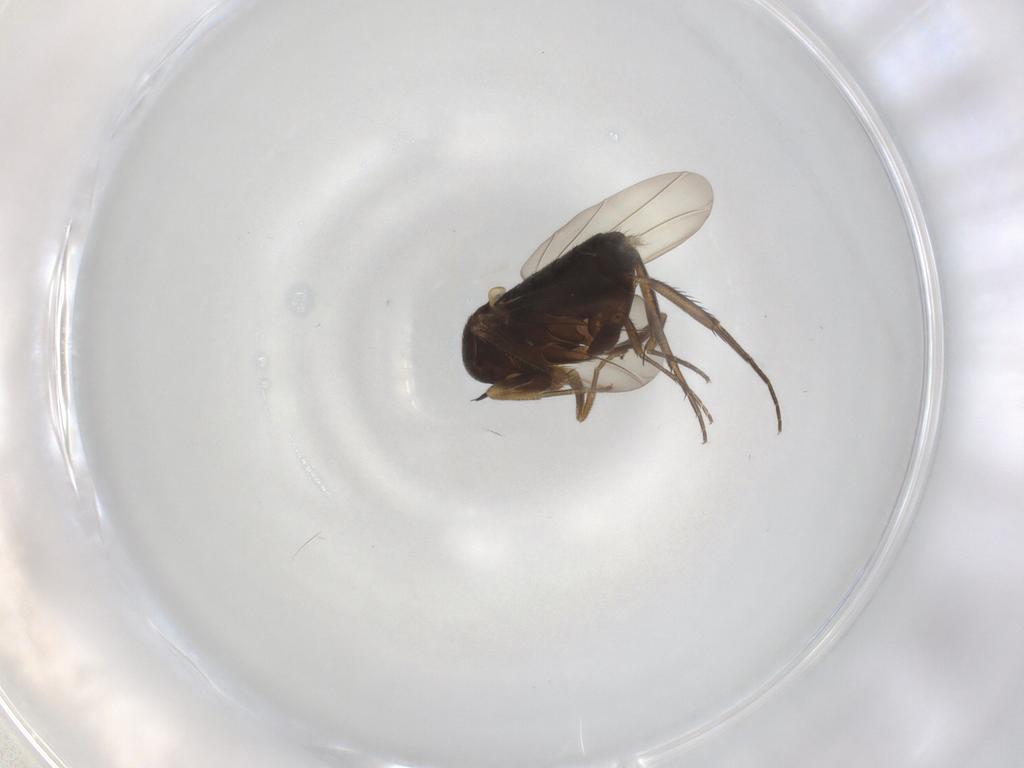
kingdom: Animalia
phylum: Arthropoda
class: Insecta
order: Diptera
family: Phoridae
